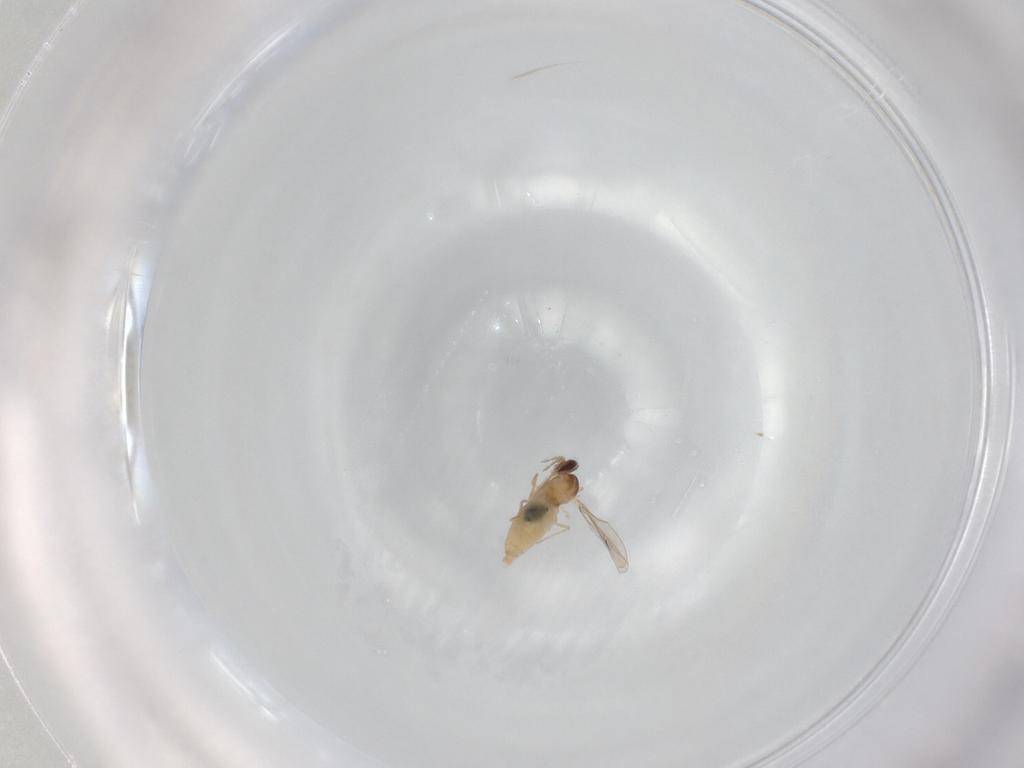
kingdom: Animalia
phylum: Arthropoda
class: Insecta
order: Diptera
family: Cecidomyiidae
